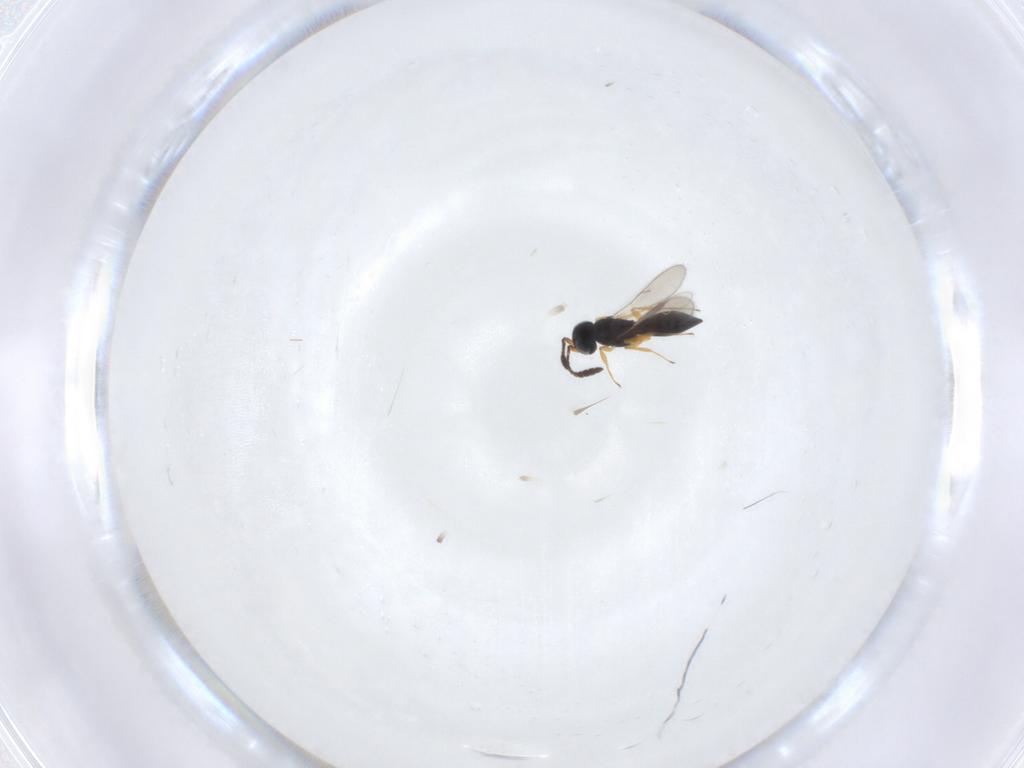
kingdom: Animalia
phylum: Arthropoda
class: Insecta
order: Hymenoptera
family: Scelionidae
